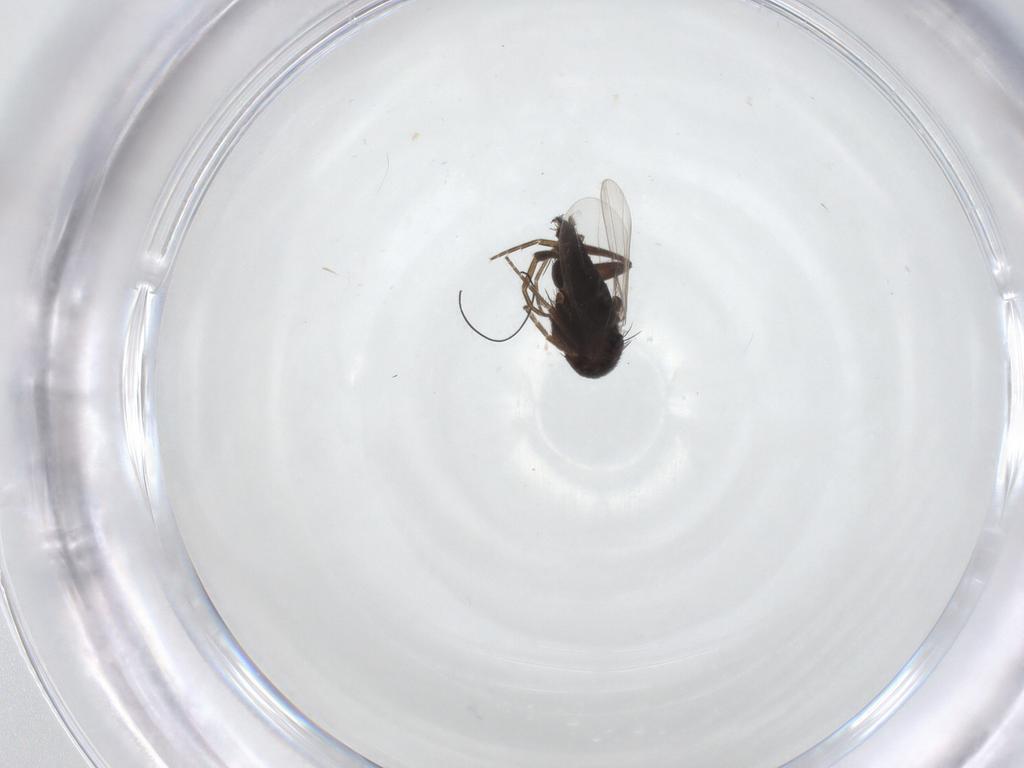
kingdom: Animalia
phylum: Arthropoda
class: Insecta
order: Diptera
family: Phoridae
